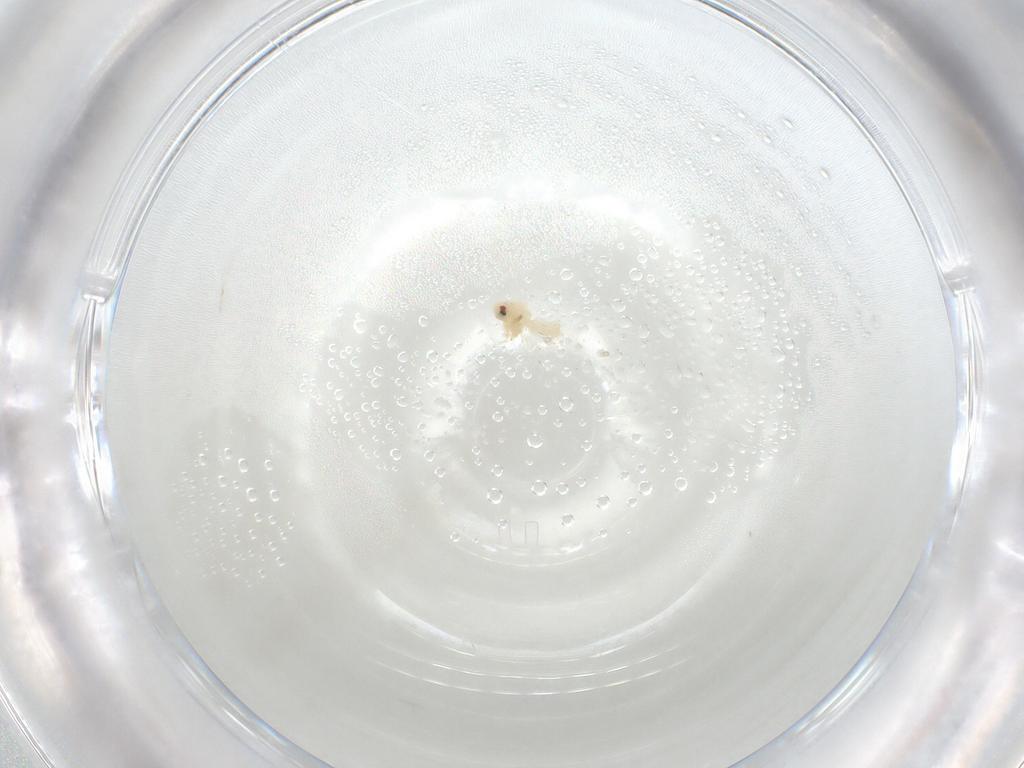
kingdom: Animalia
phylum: Arthropoda
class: Insecta
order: Hemiptera
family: Aleyrodidae
